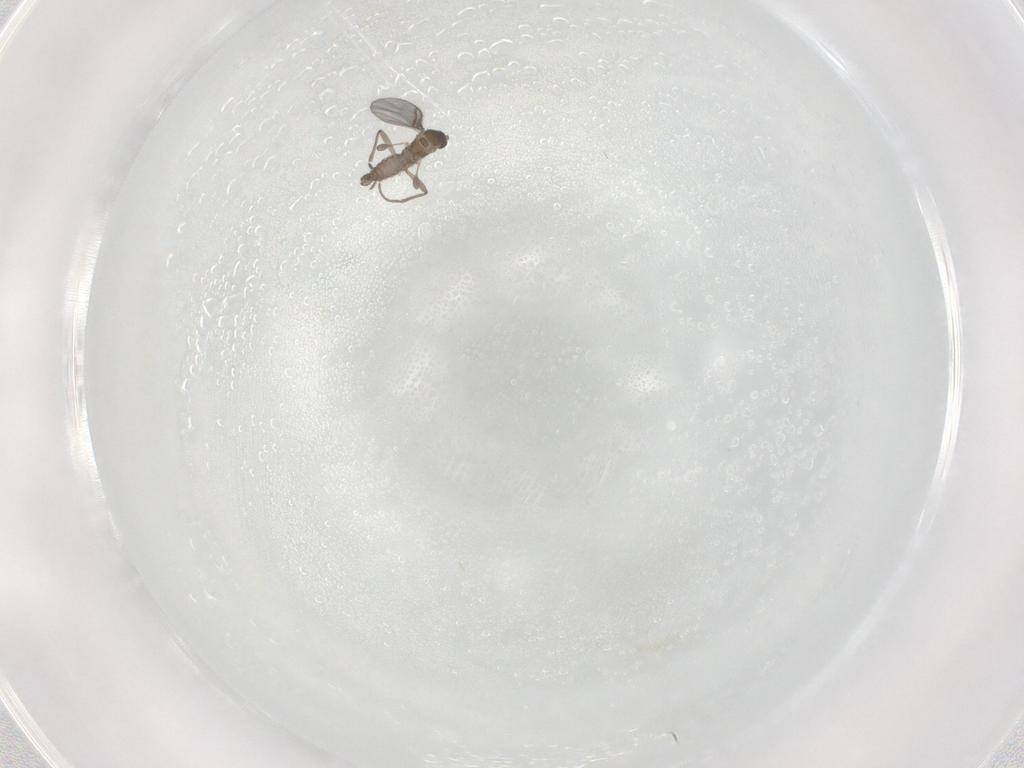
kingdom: Animalia
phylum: Arthropoda
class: Insecta
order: Diptera
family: Sciaridae
